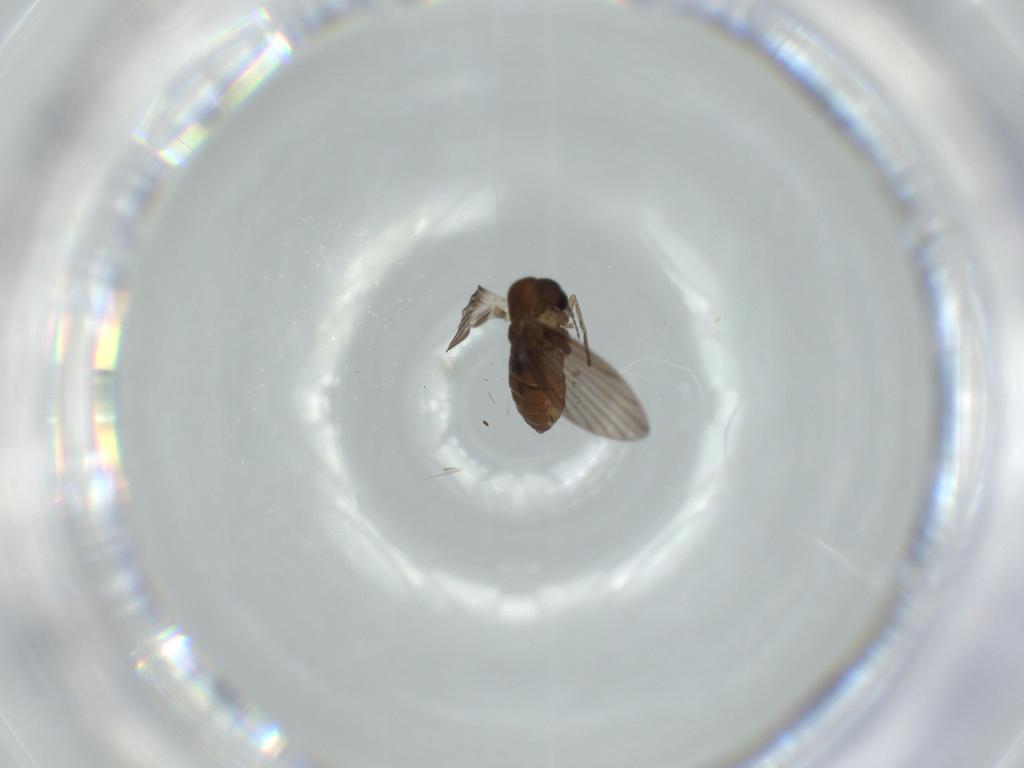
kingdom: Animalia
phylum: Arthropoda
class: Insecta
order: Diptera
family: Psychodidae
